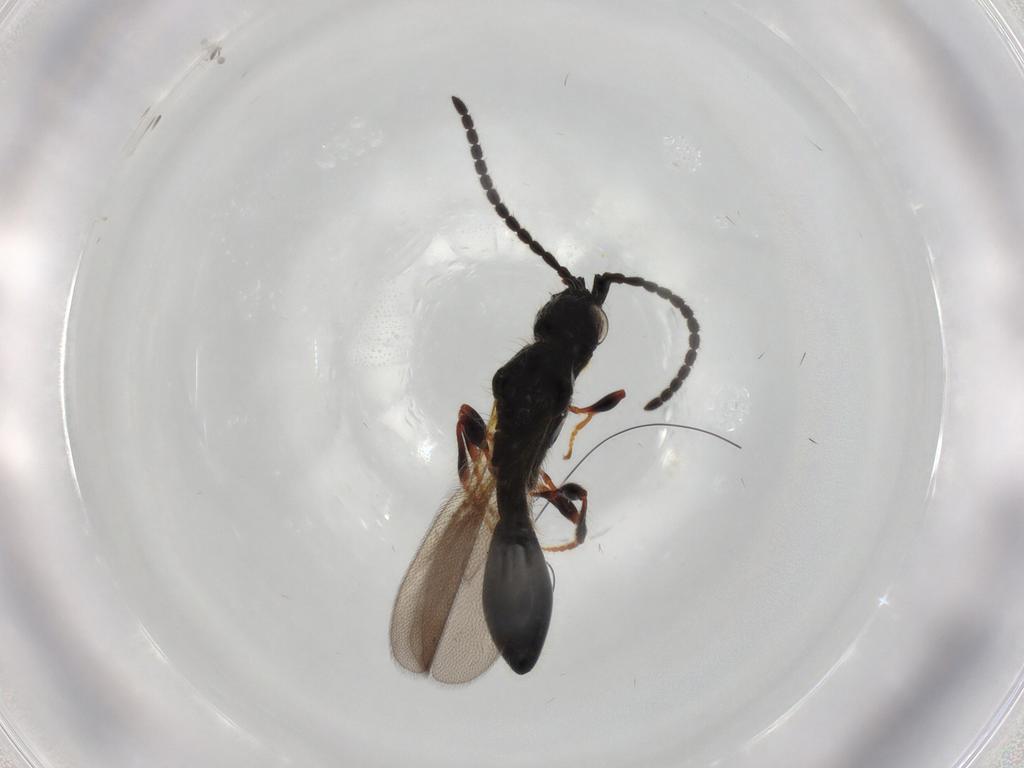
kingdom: Animalia
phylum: Arthropoda
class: Insecta
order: Hymenoptera
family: Diapriidae
